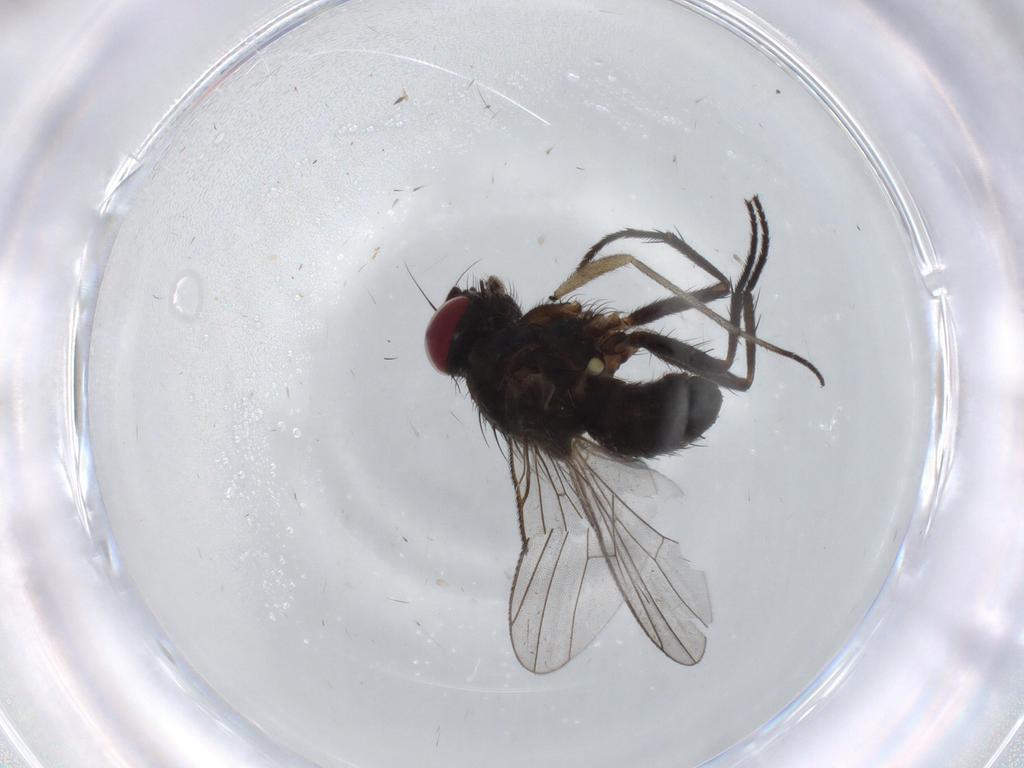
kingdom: Animalia
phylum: Arthropoda
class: Insecta
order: Diptera
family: Muscidae
